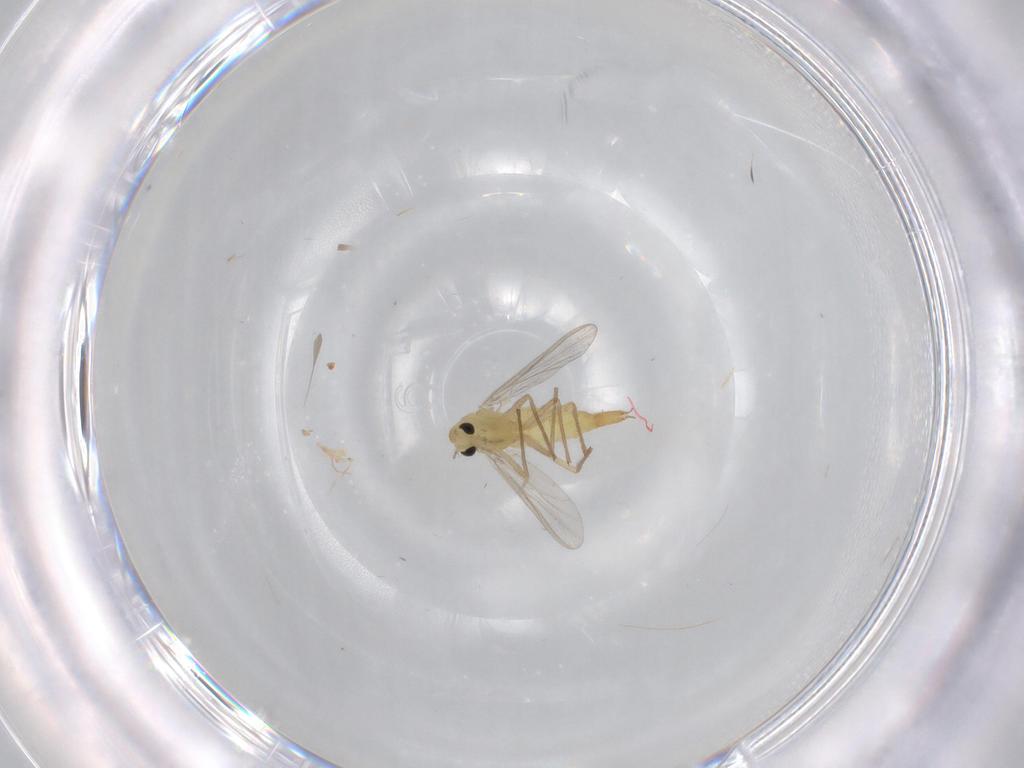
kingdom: Animalia
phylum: Arthropoda
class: Insecta
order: Diptera
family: Chironomidae
